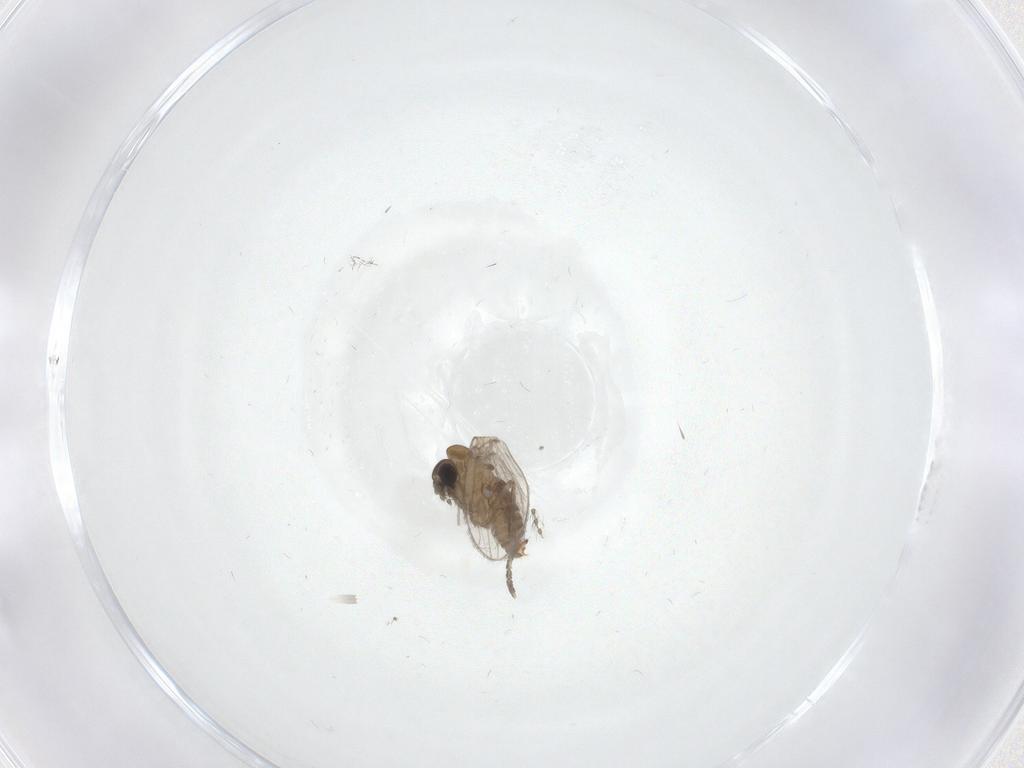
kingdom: Animalia
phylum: Arthropoda
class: Insecta
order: Diptera
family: Psychodidae
